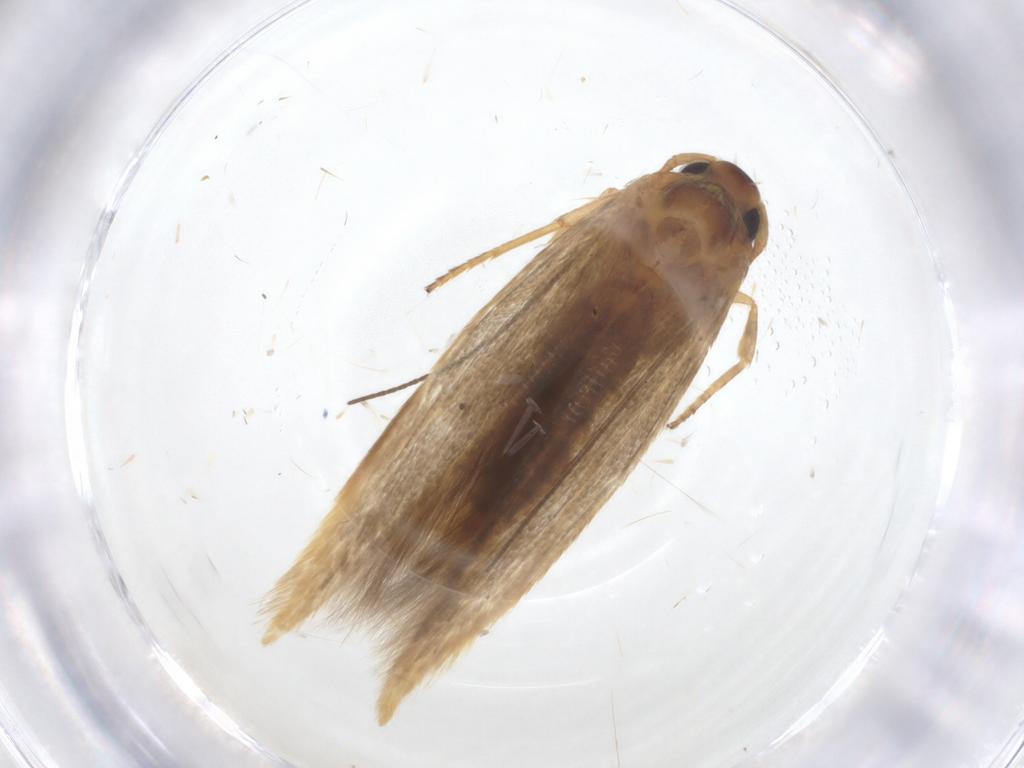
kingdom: Animalia
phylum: Arthropoda
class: Insecta
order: Lepidoptera
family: Stathmopodidae
